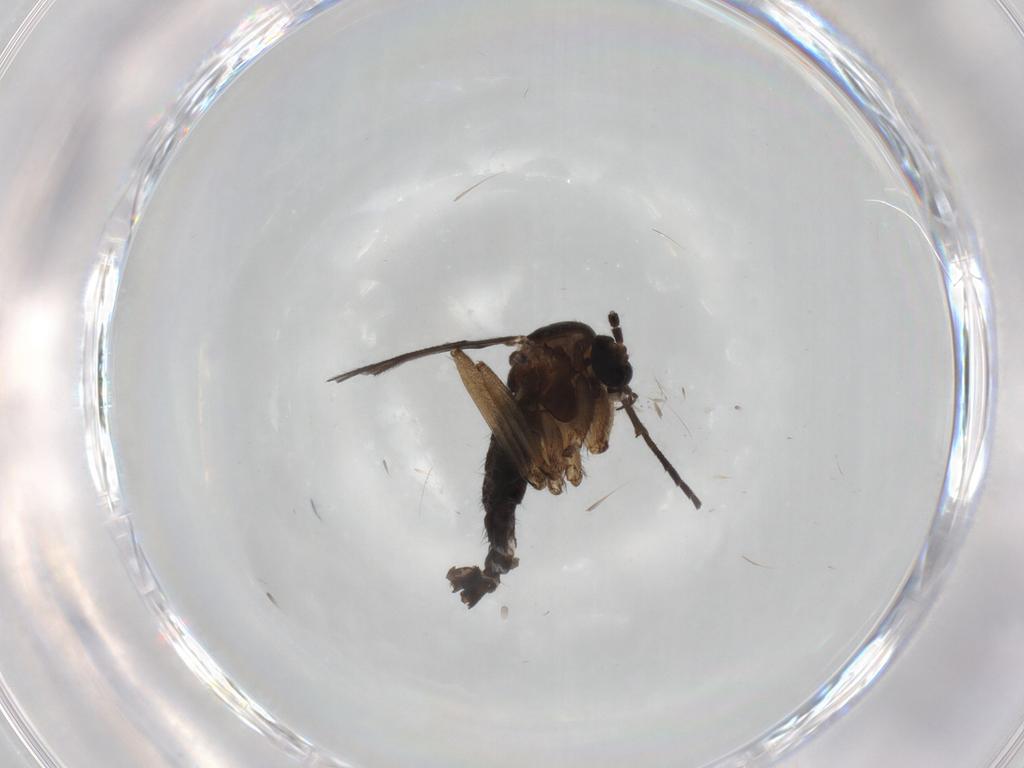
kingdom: Animalia
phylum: Arthropoda
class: Insecta
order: Diptera
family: Sciaridae
